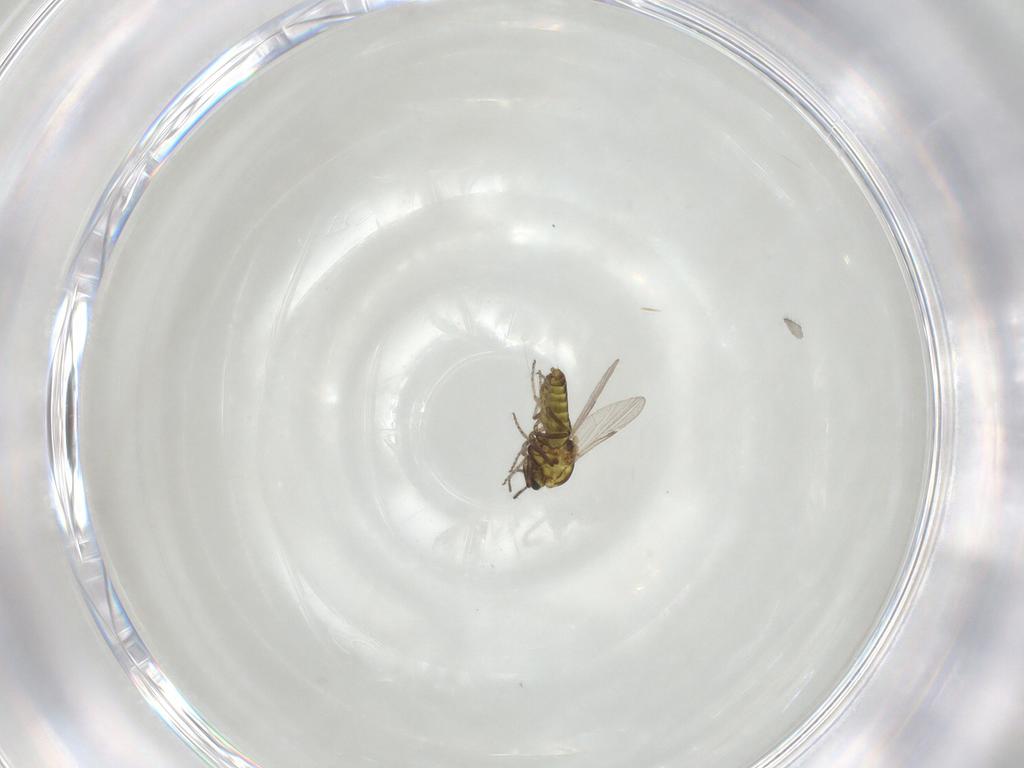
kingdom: Animalia
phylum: Arthropoda
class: Insecta
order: Diptera
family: Ceratopogonidae
